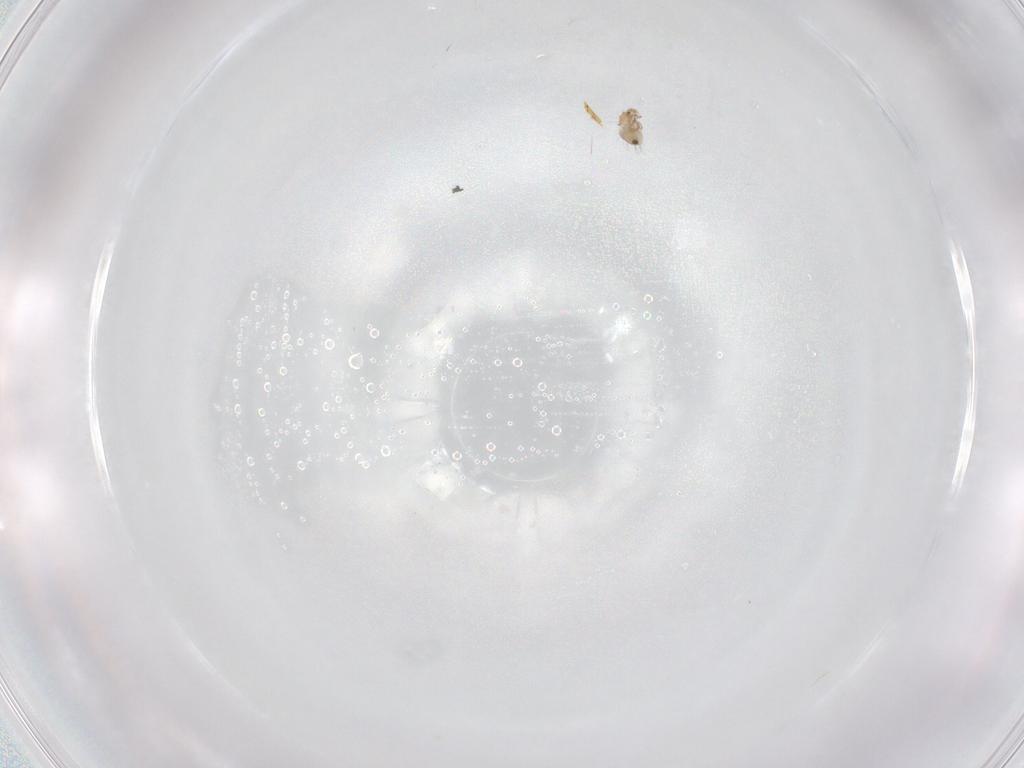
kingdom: Animalia
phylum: Arthropoda
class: Arachnida
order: Sarcoptiformes
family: Humerobatidae
